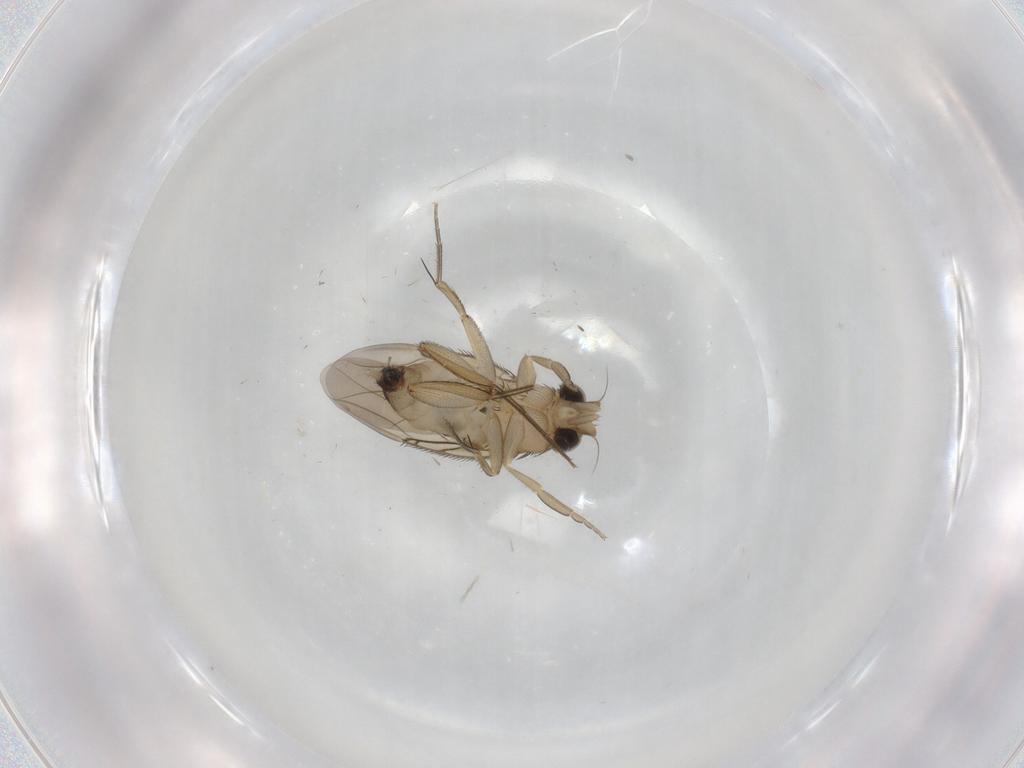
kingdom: Animalia
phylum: Arthropoda
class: Insecta
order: Diptera
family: Phoridae
